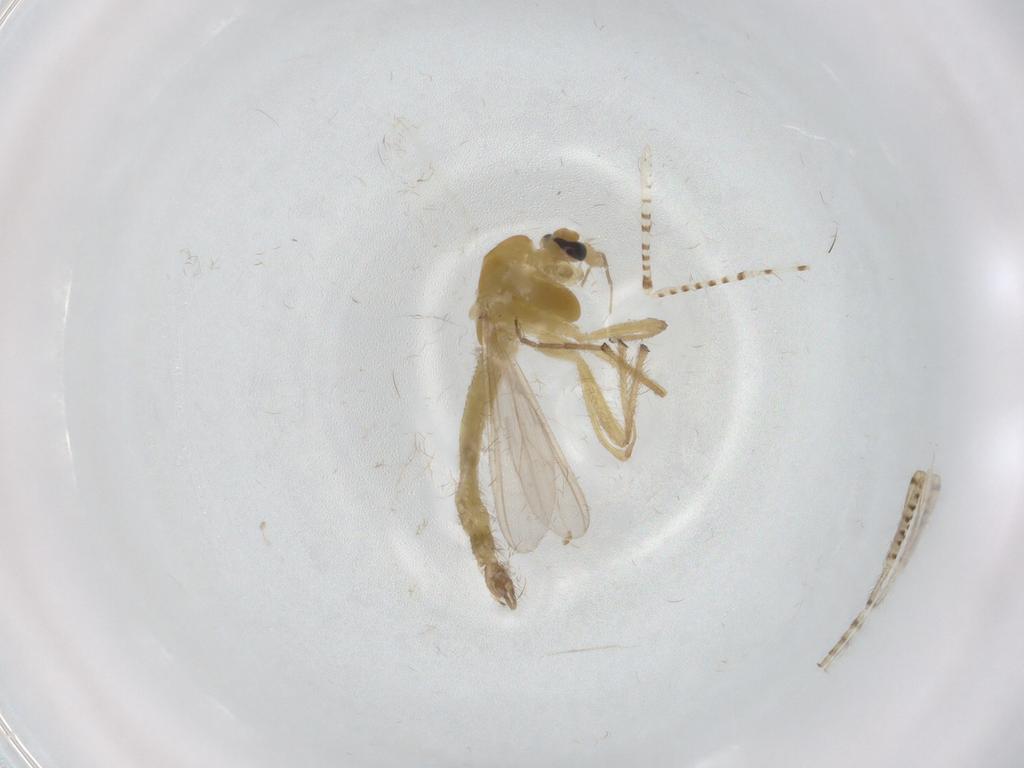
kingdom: Animalia
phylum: Arthropoda
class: Insecta
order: Diptera
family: Chironomidae
